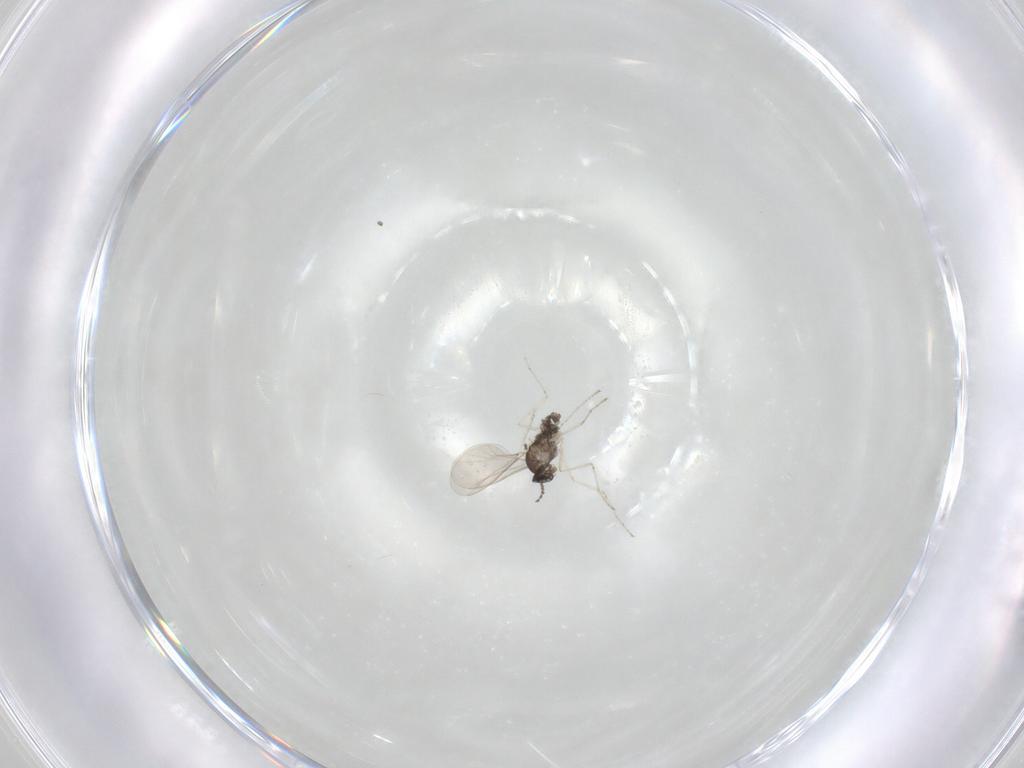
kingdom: Animalia
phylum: Arthropoda
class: Insecta
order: Diptera
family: Cecidomyiidae
